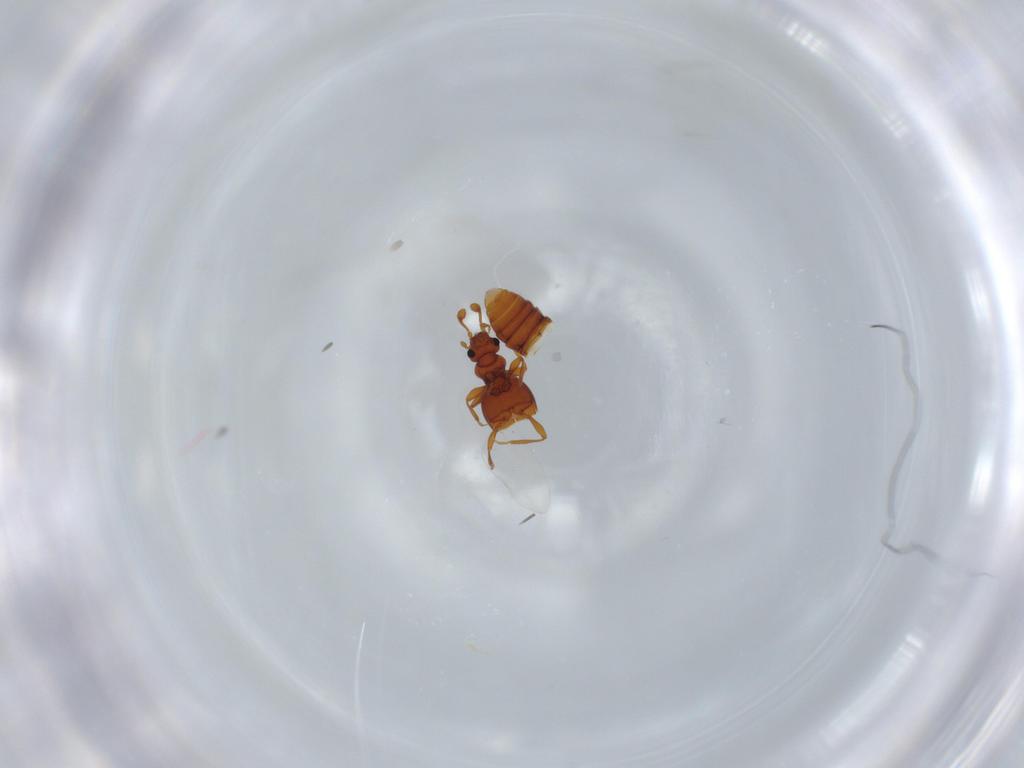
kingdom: Animalia
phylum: Arthropoda
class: Insecta
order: Coleoptera
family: Staphylinidae
